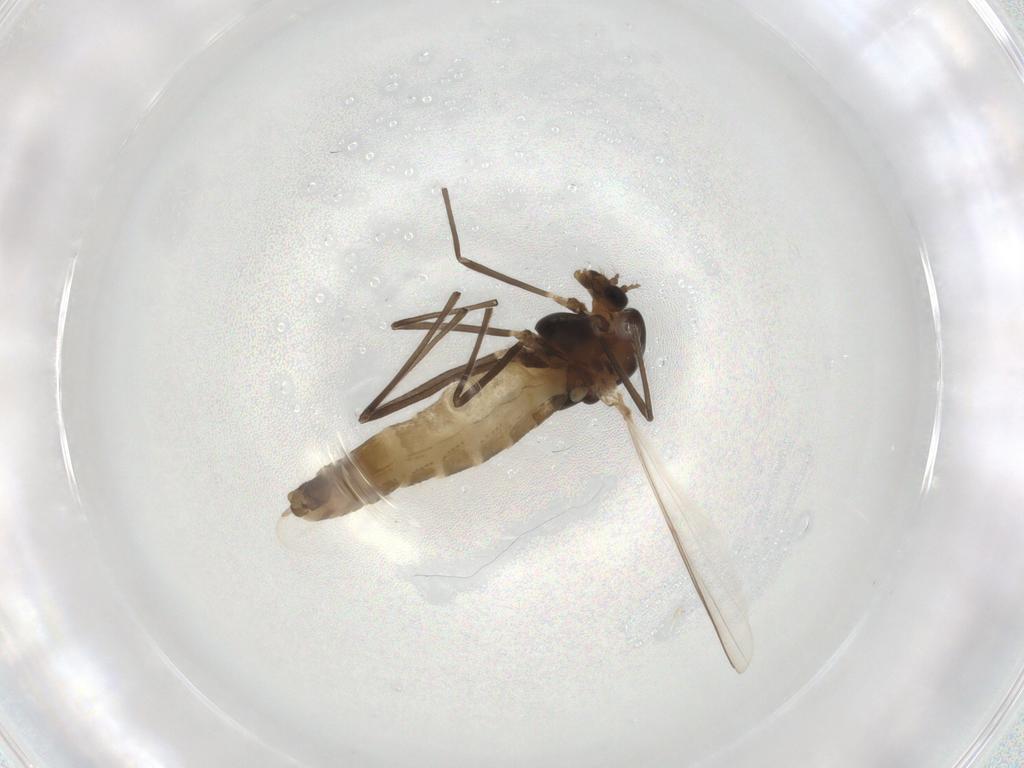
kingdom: Animalia
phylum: Arthropoda
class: Insecta
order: Diptera
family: Chironomidae
